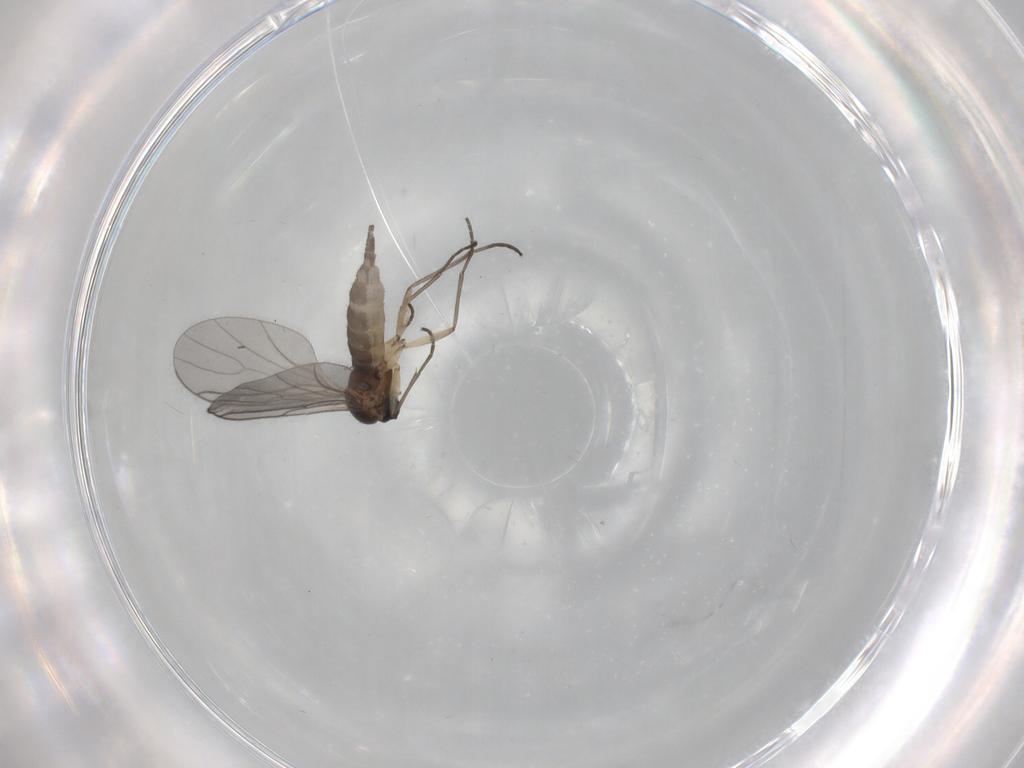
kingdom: Animalia
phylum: Arthropoda
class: Insecta
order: Diptera
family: Sciaridae
